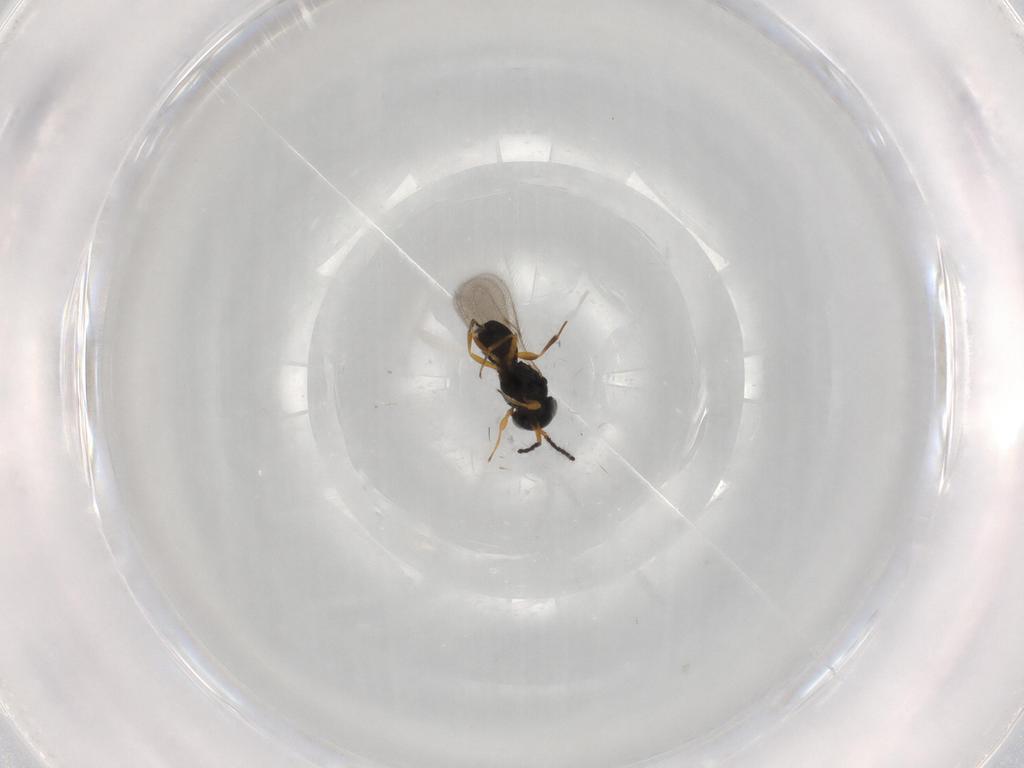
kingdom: Animalia
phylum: Arthropoda
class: Insecta
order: Hymenoptera
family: Scelionidae
